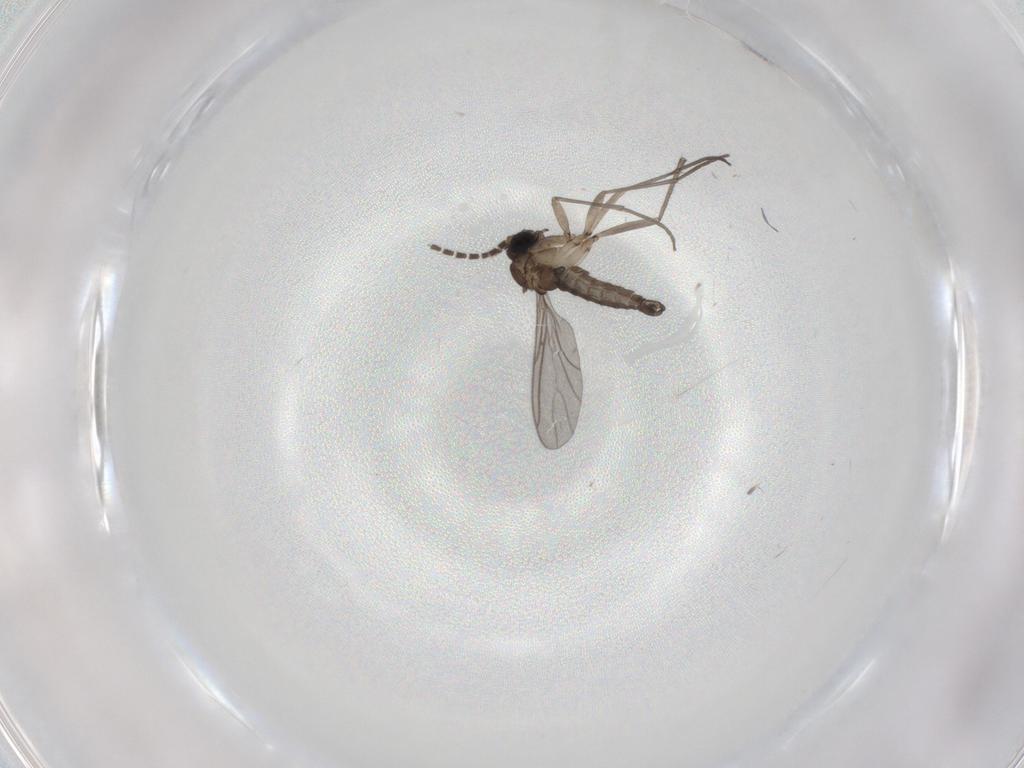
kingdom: Animalia
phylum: Arthropoda
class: Insecta
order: Diptera
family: Sciaridae
